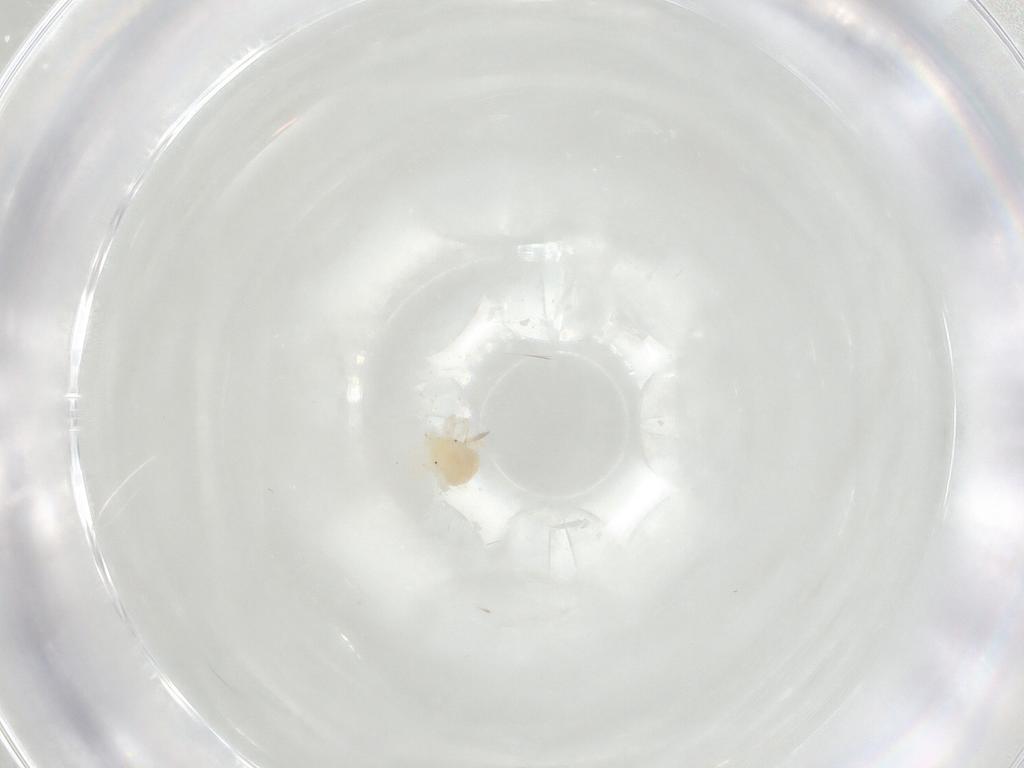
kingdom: Animalia
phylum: Arthropoda
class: Arachnida
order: Trombidiformes
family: Anystidae
